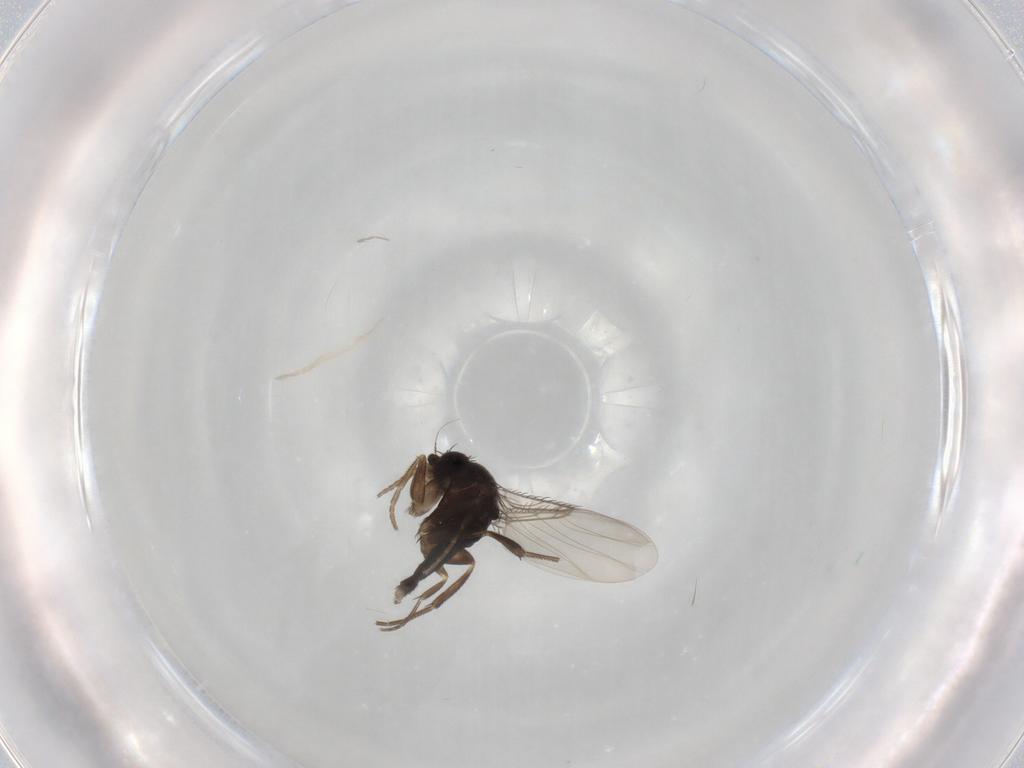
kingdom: Animalia
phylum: Arthropoda
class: Insecta
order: Diptera
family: Phoridae
